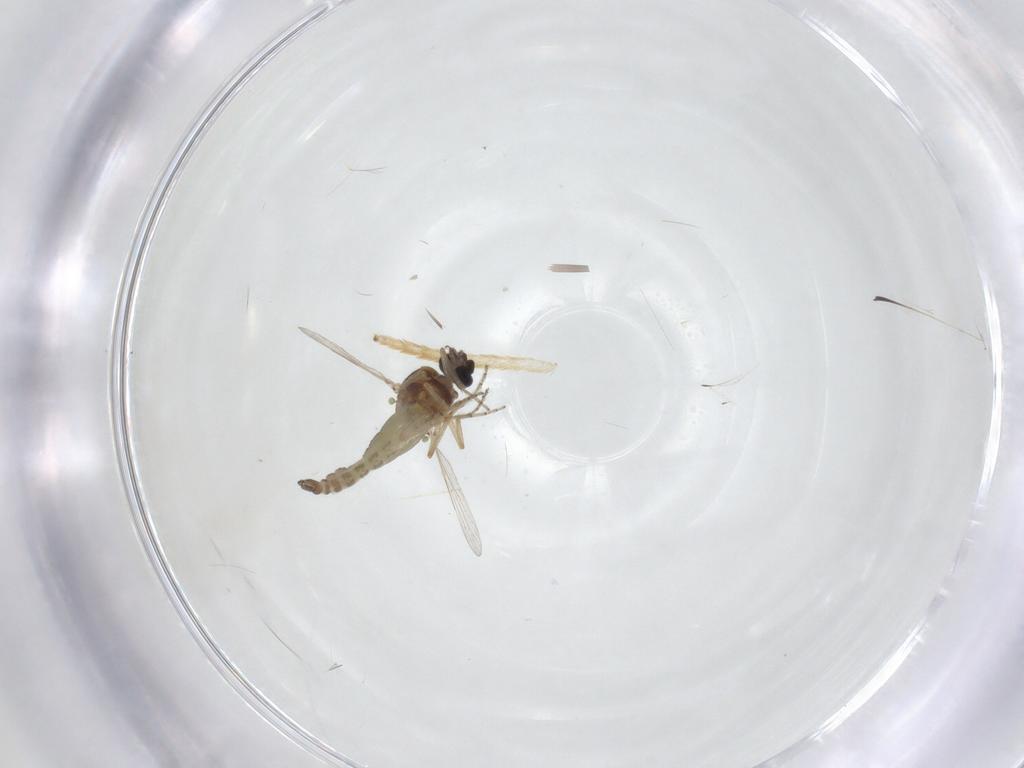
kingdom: Animalia
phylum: Arthropoda
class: Insecta
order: Diptera
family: Ceratopogonidae
